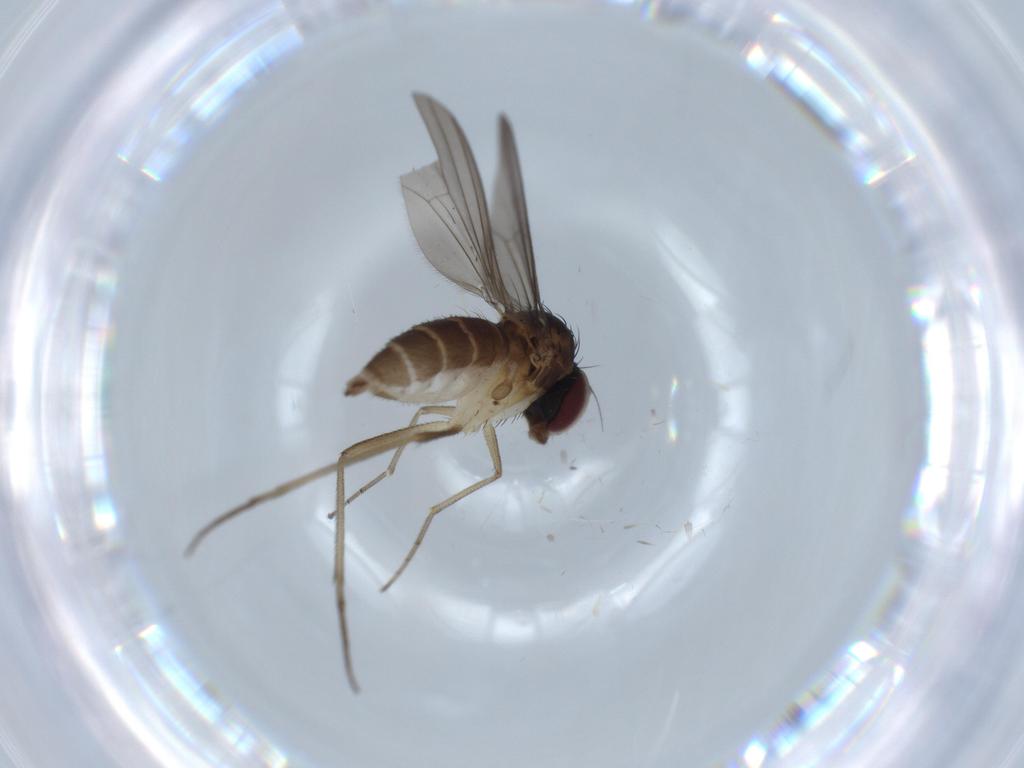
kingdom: Animalia
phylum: Arthropoda
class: Insecta
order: Diptera
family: Dolichopodidae
